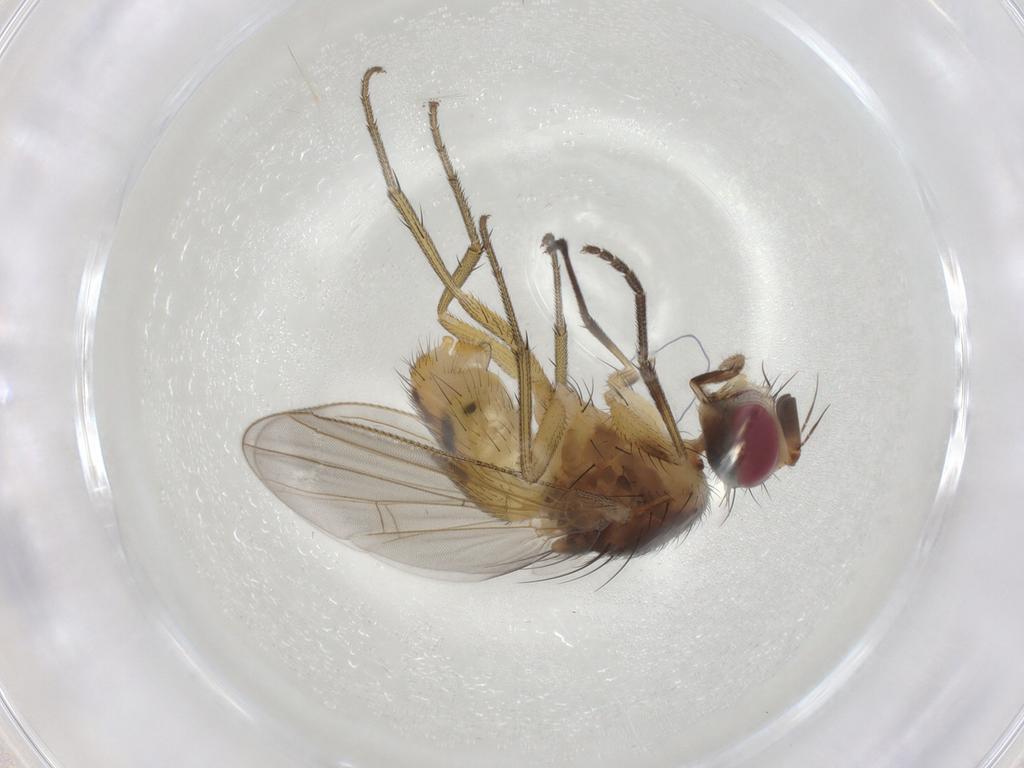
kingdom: Animalia
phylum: Arthropoda
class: Insecta
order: Diptera
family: Muscidae
